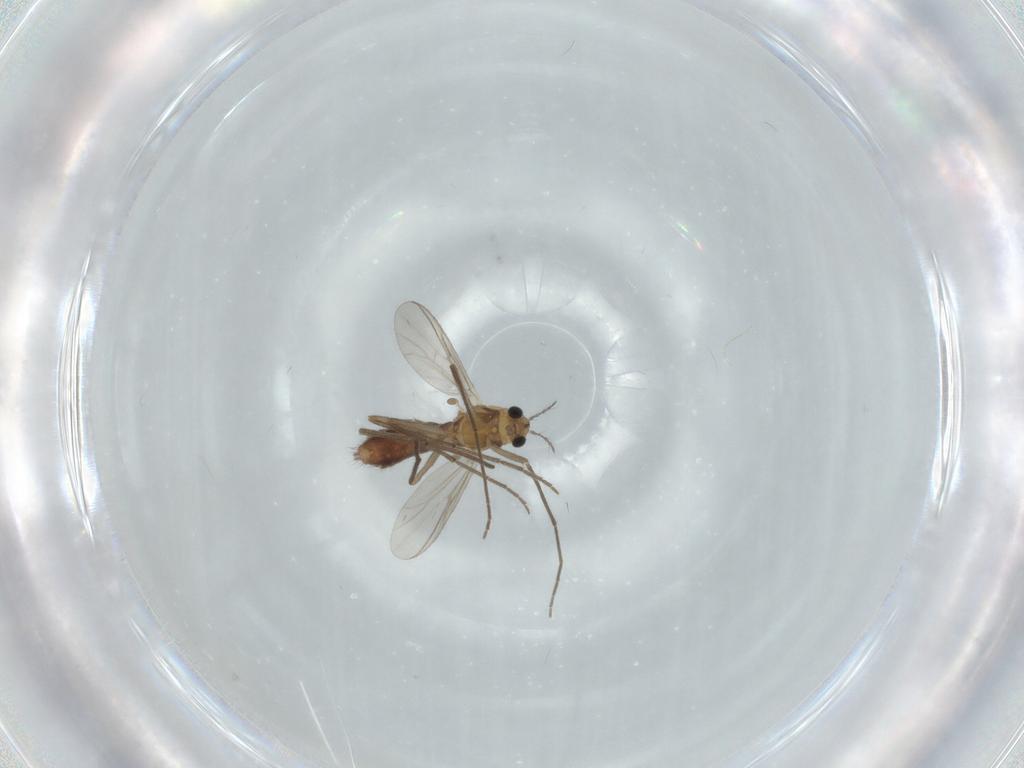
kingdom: Animalia
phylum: Arthropoda
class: Insecta
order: Diptera
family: Chironomidae
